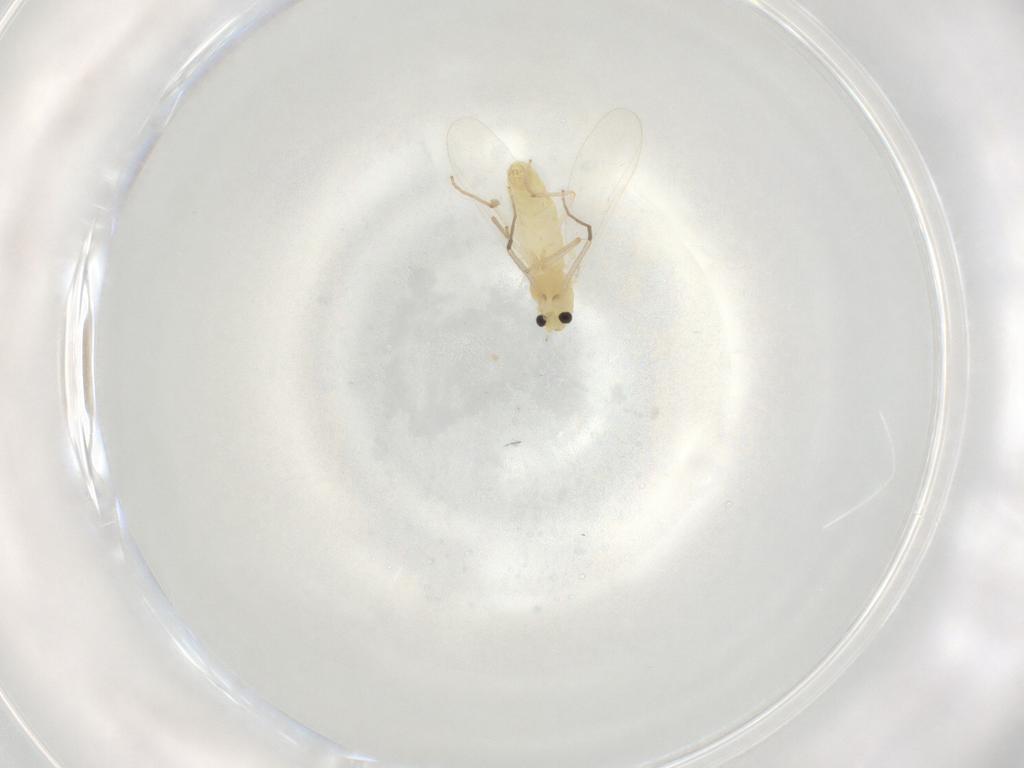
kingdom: Animalia
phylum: Arthropoda
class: Insecta
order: Diptera
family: Chironomidae
